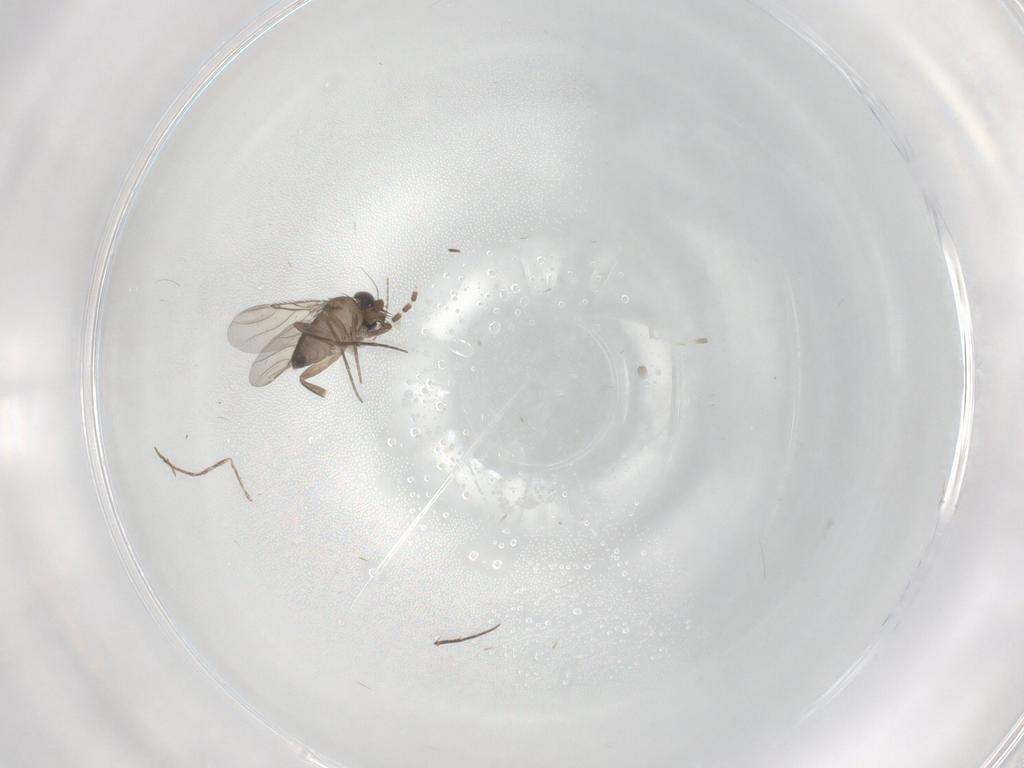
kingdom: Animalia
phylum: Arthropoda
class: Insecta
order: Diptera
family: Phoridae
